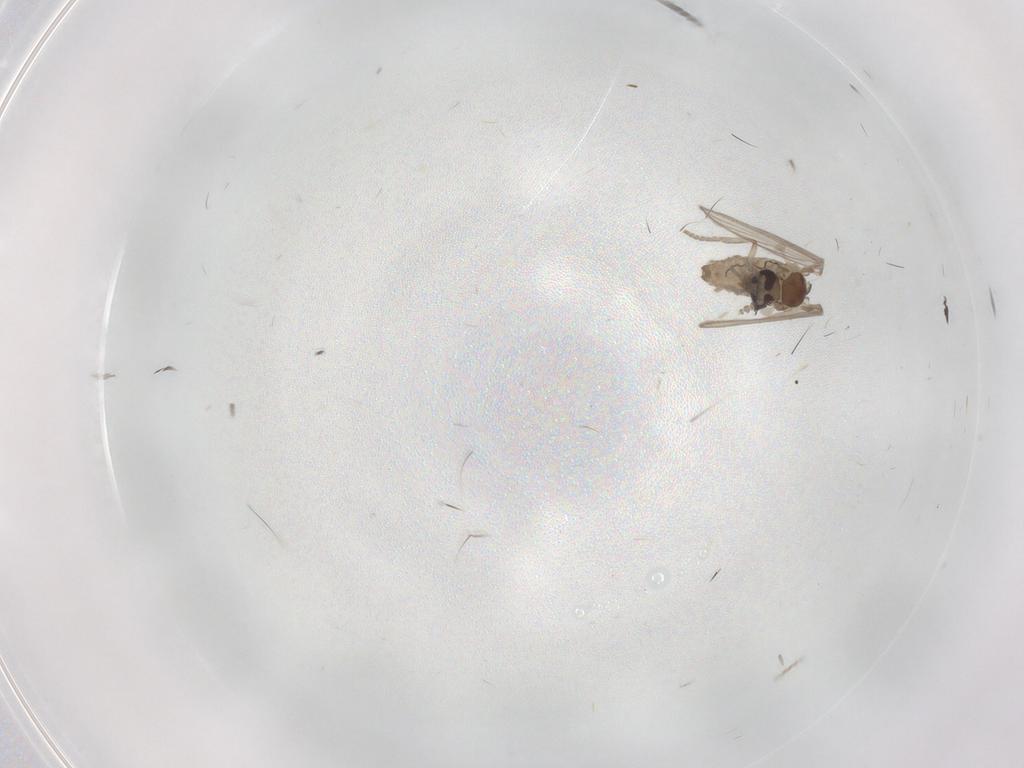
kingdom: Animalia
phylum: Arthropoda
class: Insecta
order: Diptera
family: Psychodidae
